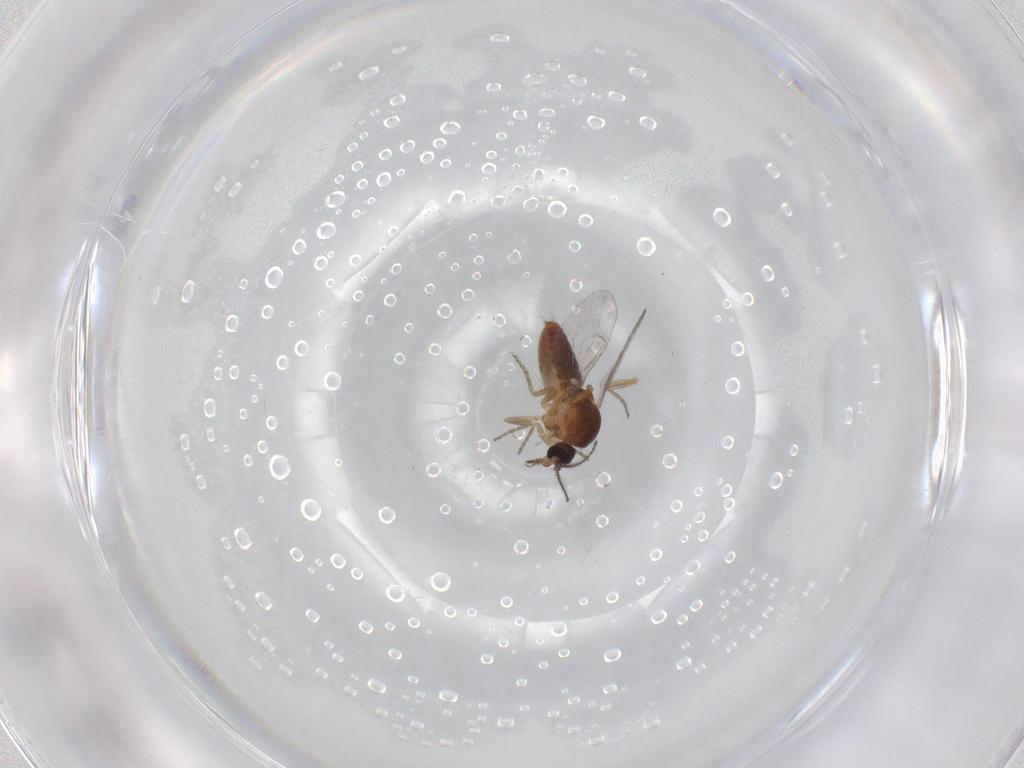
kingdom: Animalia
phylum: Arthropoda
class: Insecta
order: Diptera
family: Ceratopogonidae
